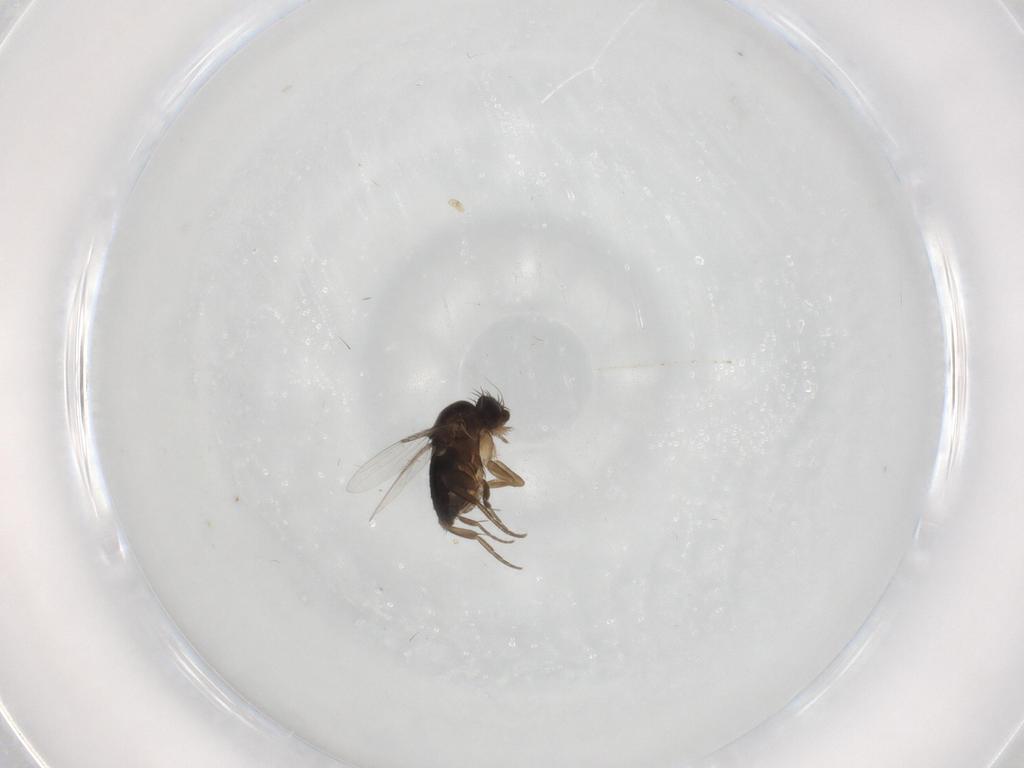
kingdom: Animalia
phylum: Arthropoda
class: Insecta
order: Diptera
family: Phoridae
